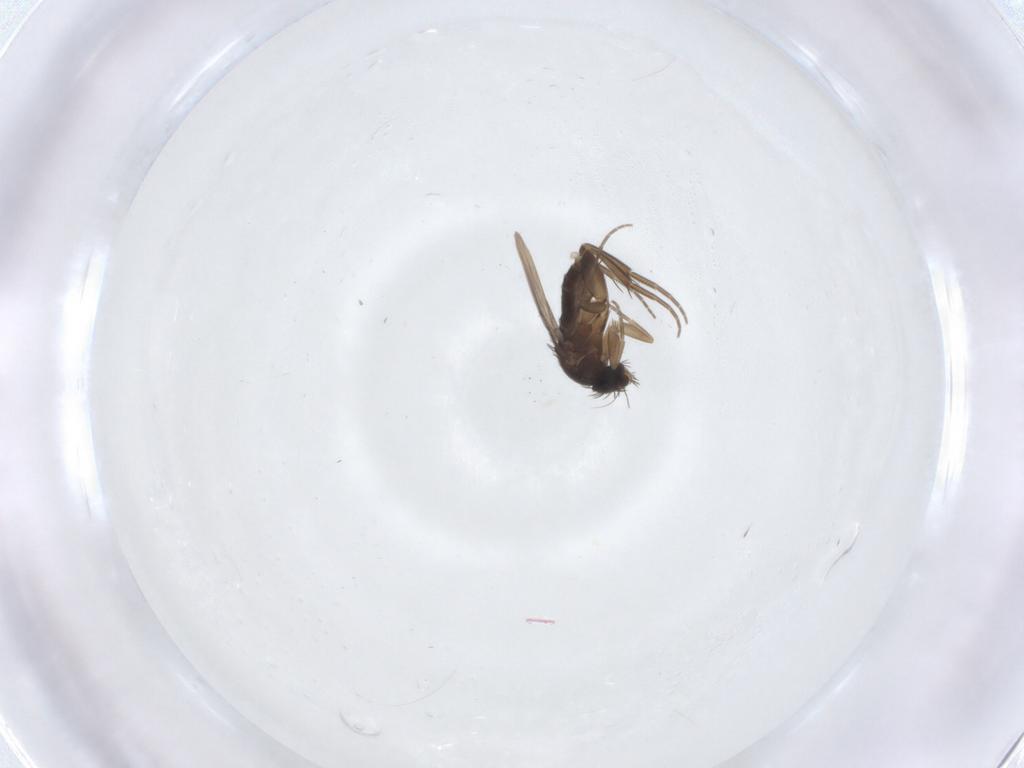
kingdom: Animalia
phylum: Arthropoda
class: Insecta
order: Diptera
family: Phoridae
